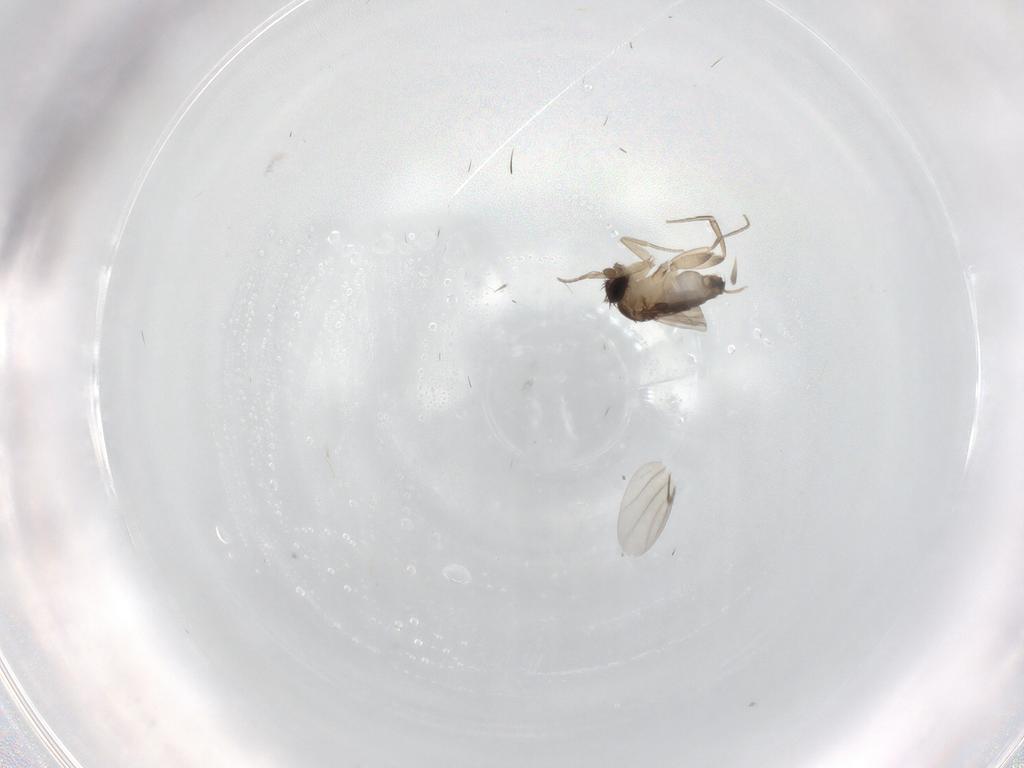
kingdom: Animalia
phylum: Arthropoda
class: Insecta
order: Diptera
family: Phoridae
